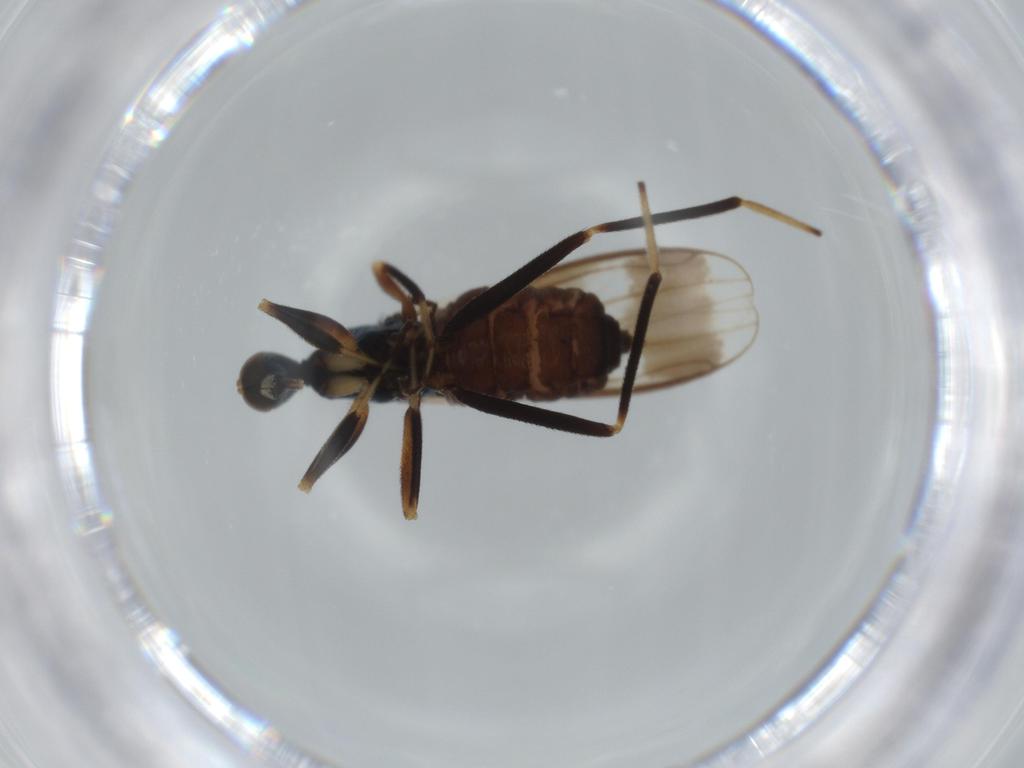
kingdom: Animalia
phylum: Arthropoda
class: Insecta
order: Diptera
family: Hybotidae
